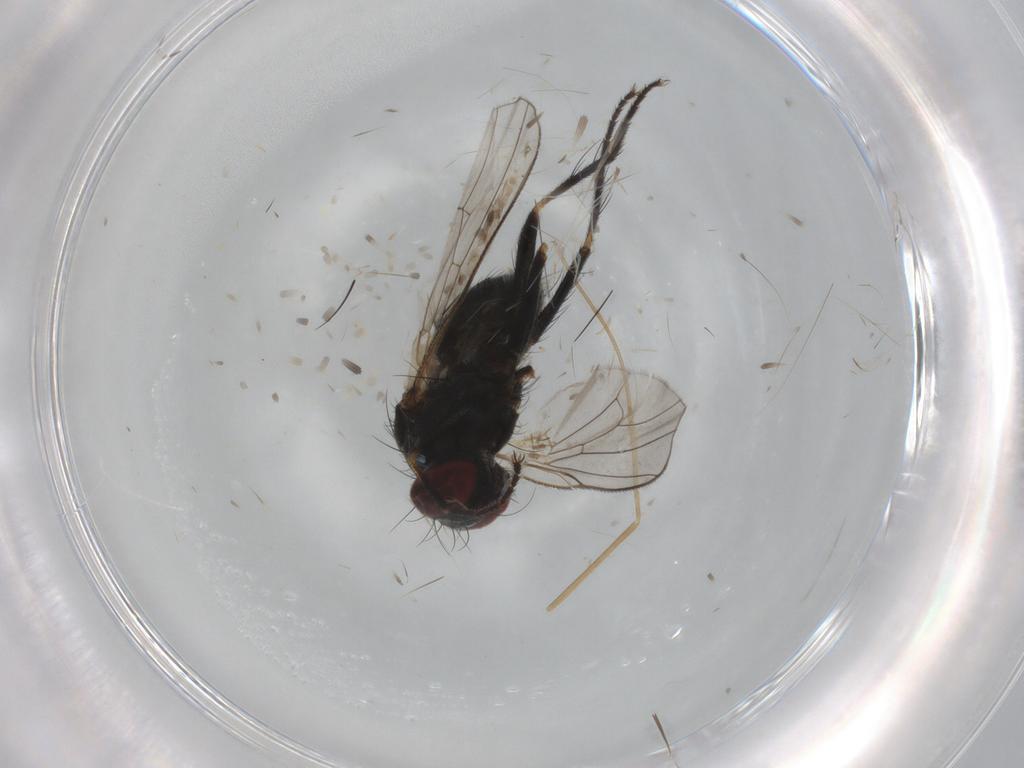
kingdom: Animalia
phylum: Arthropoda
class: Insecta
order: Diptera
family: Muscidae
